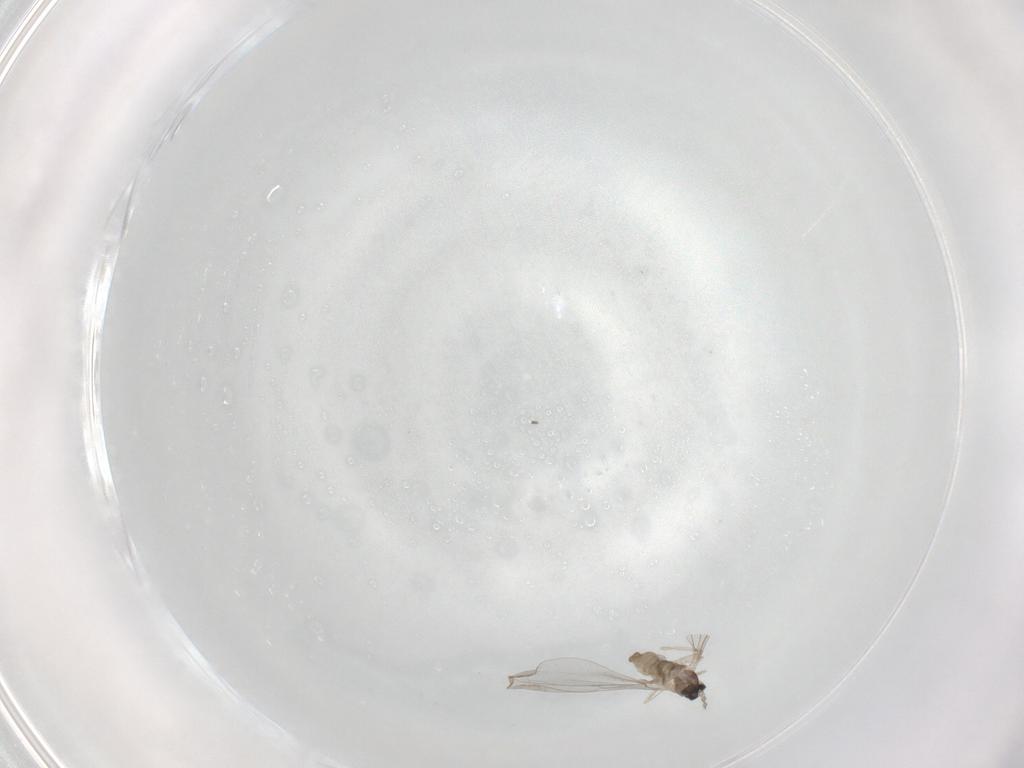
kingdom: Animalia
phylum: Arthropoda
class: Insecta
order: Diptera
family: Cecidomyiidae
